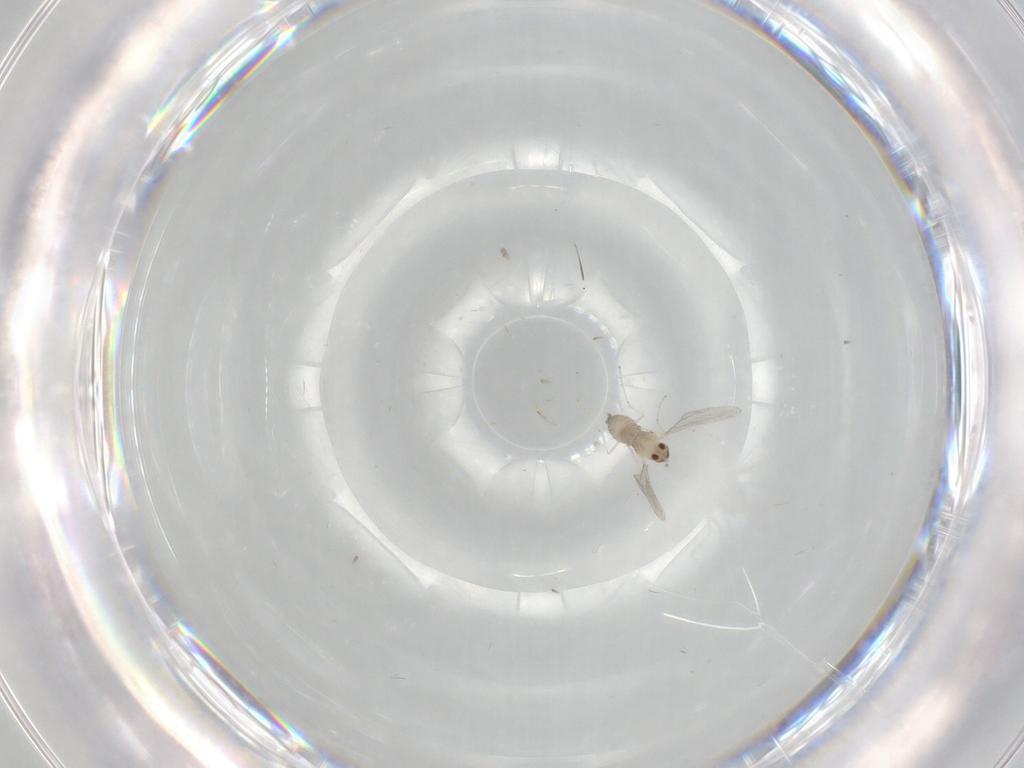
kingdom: Animalia
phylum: Arthropoda
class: Insecta
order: Diptera
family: Cecidomyiidae
